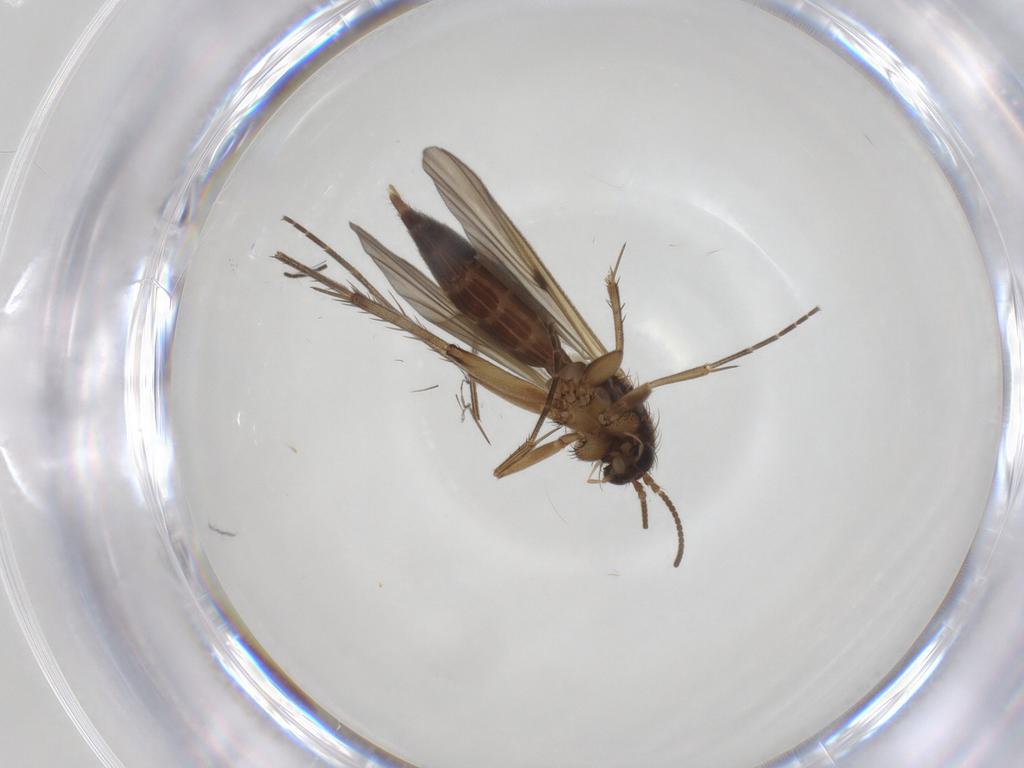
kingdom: Animalia
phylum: Arthropoda
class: Insecta
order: Diptera
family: Sciaridae
